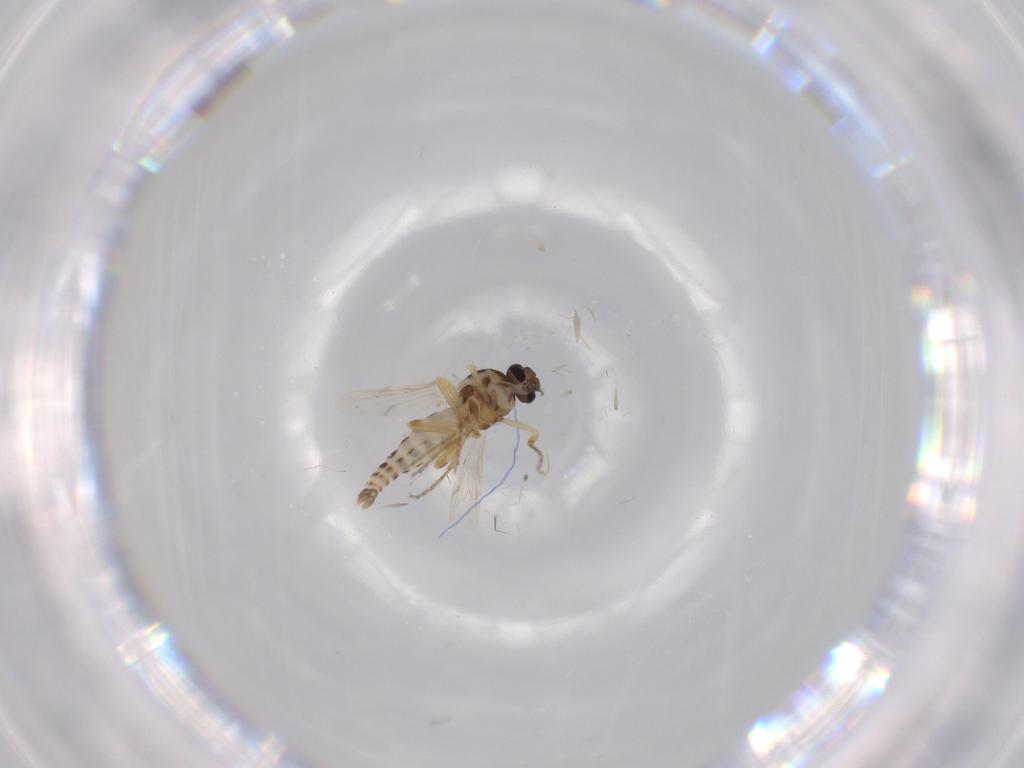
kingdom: Animalia
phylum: Arthropoda
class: Insecta
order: Diptera
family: Ceratopogonidae
